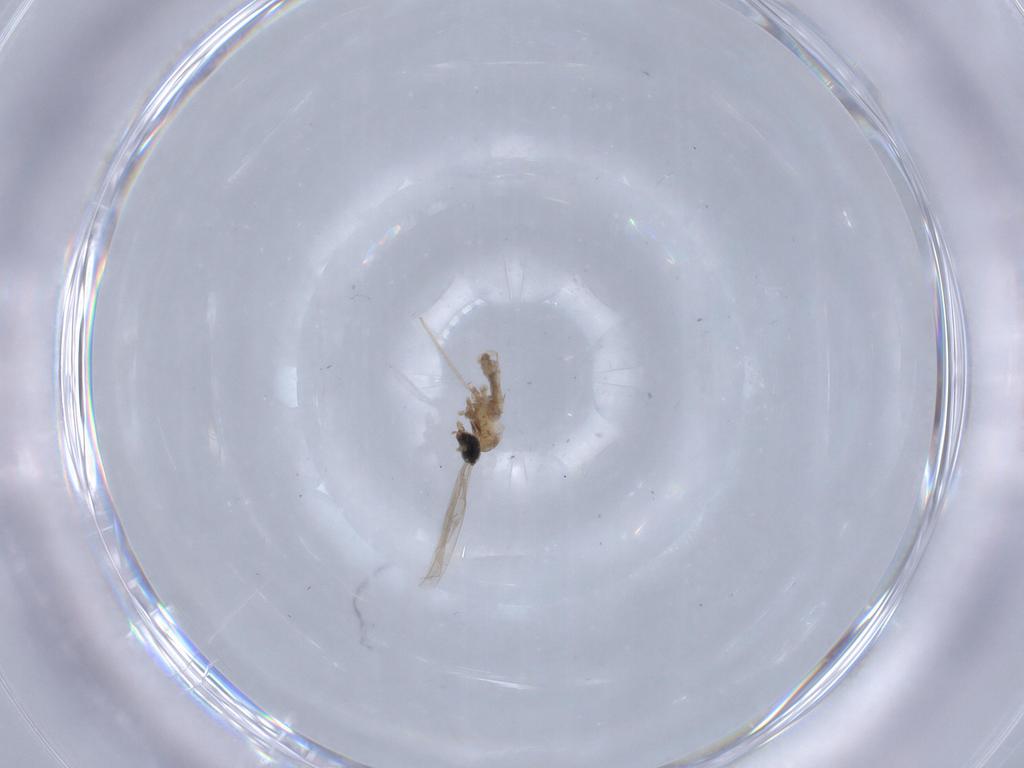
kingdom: Animalia
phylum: Arthropoda
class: Insecta
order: Diptera
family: Cecidomyiidae
